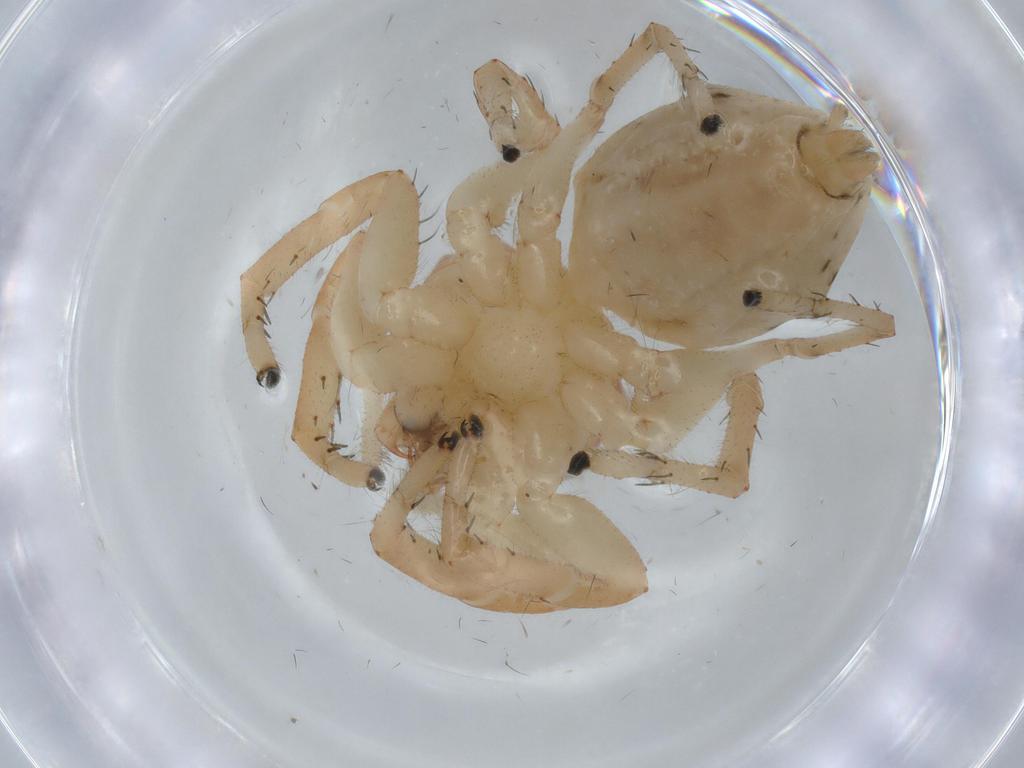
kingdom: Animalia
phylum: Arthropoda
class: Arachnida
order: Araneae
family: Salticidae
